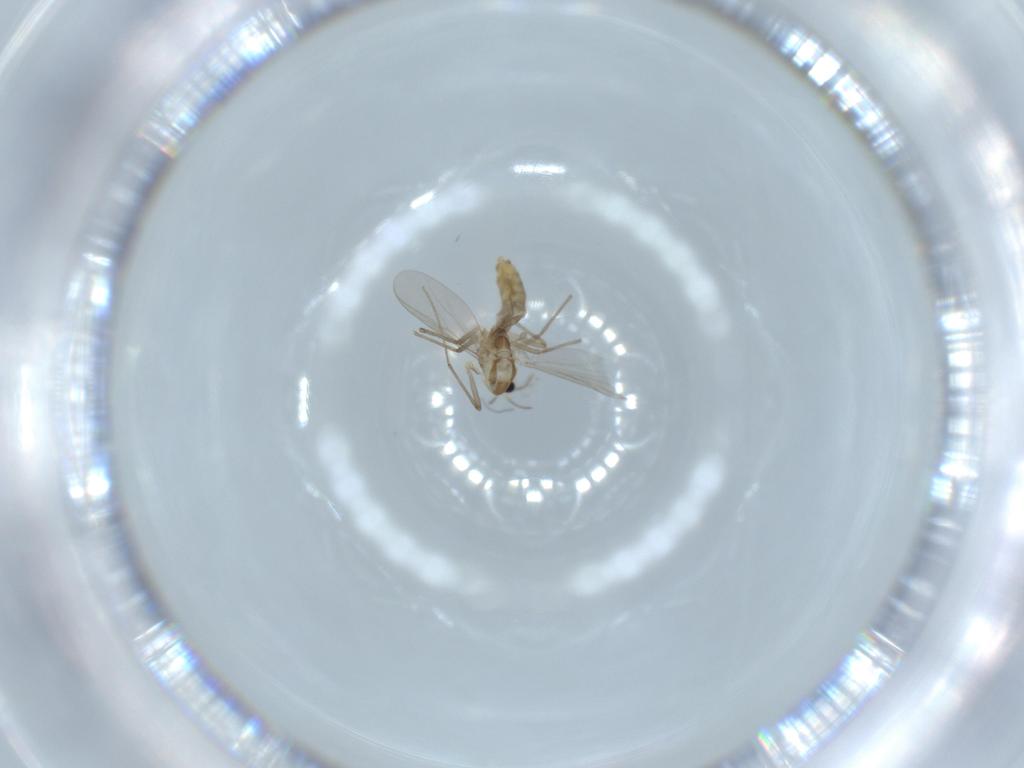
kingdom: Animalia
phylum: Arthropoda
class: Insecta
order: Diptera
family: Chironomidae
